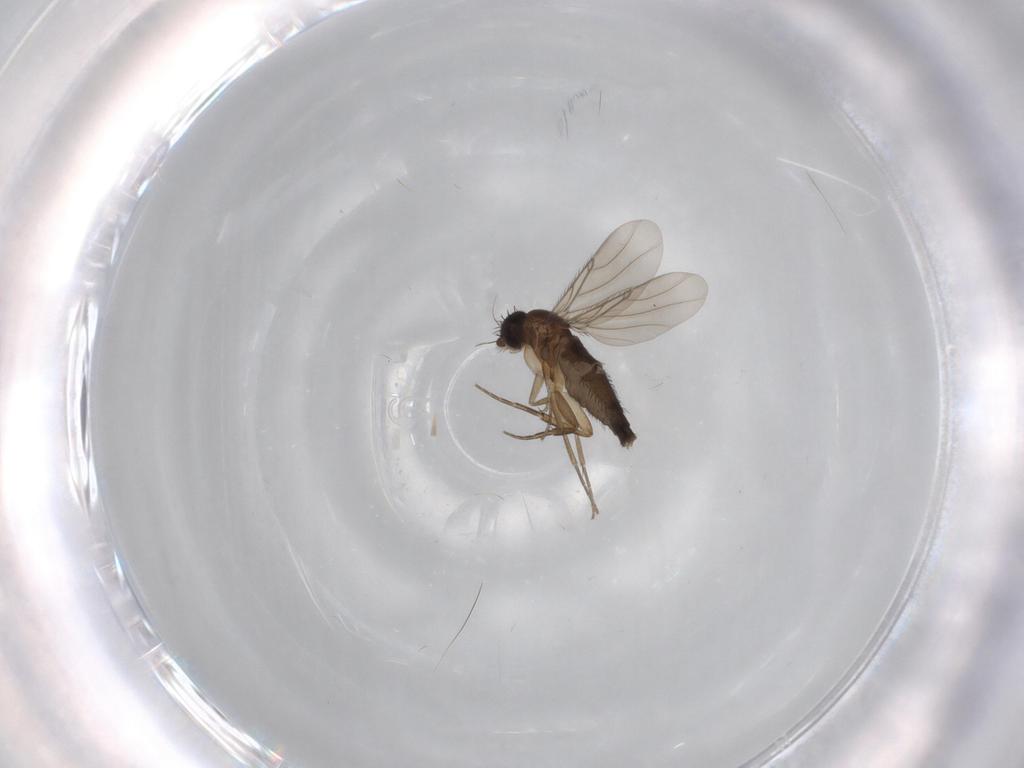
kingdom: Animalia
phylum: Arthropoda
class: Insecta
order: Diptera
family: Phoridae
